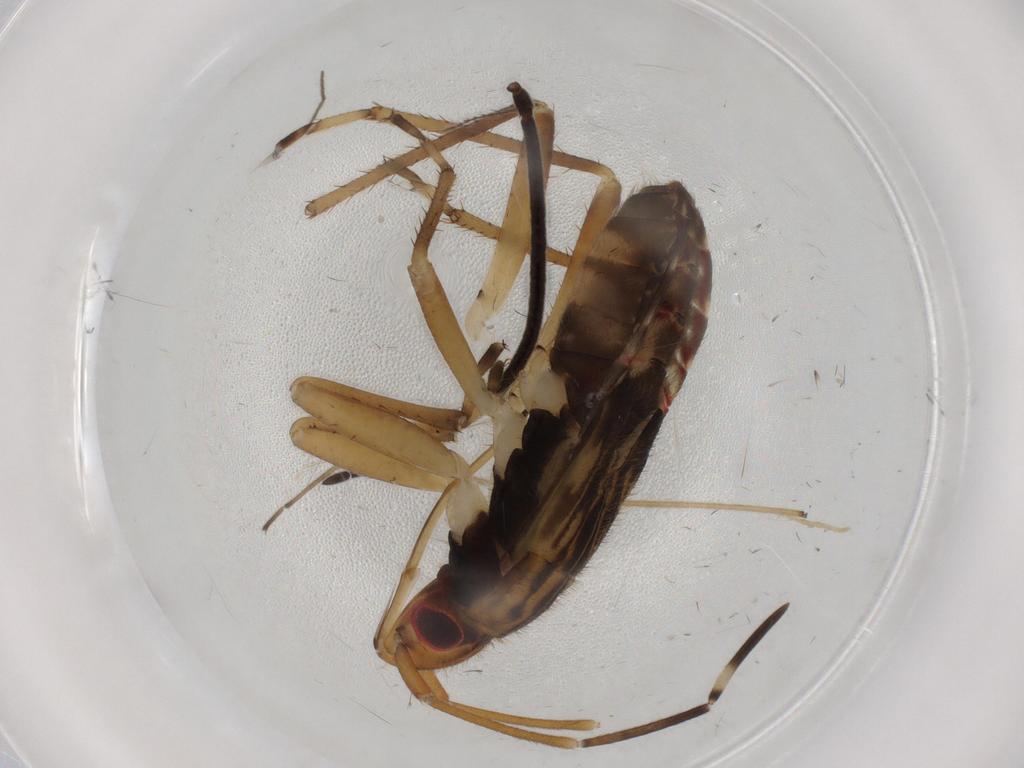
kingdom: Animalia
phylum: Arthropoda
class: Insecta
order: Hemiptera
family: Rhyparochromidae
